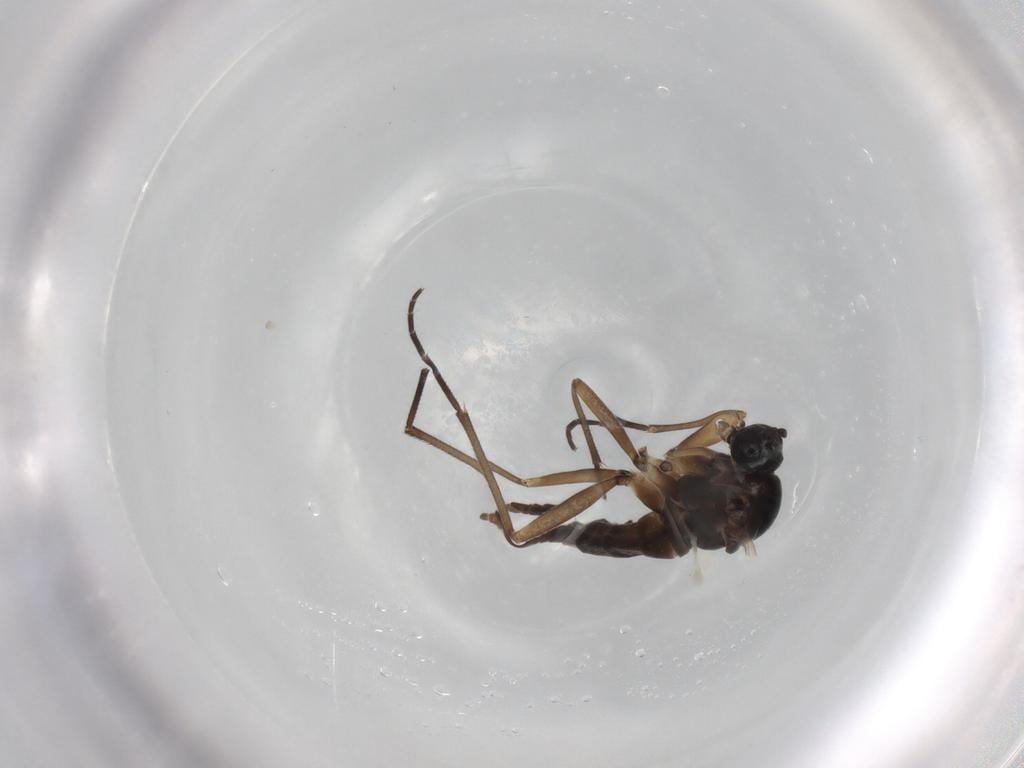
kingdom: Animalia
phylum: Arthropoda
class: Insecta
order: Diptera
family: Sciaridae
